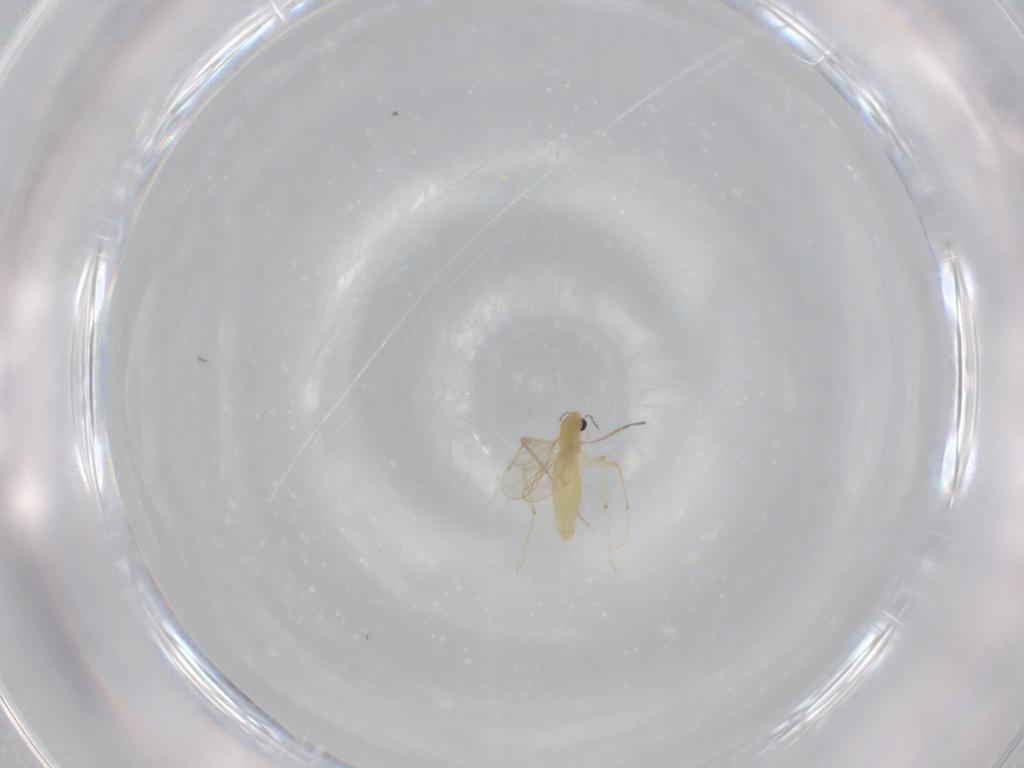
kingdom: Animalia
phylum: Arthropoda
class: Insecta
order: Diptera
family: Chironomidae
